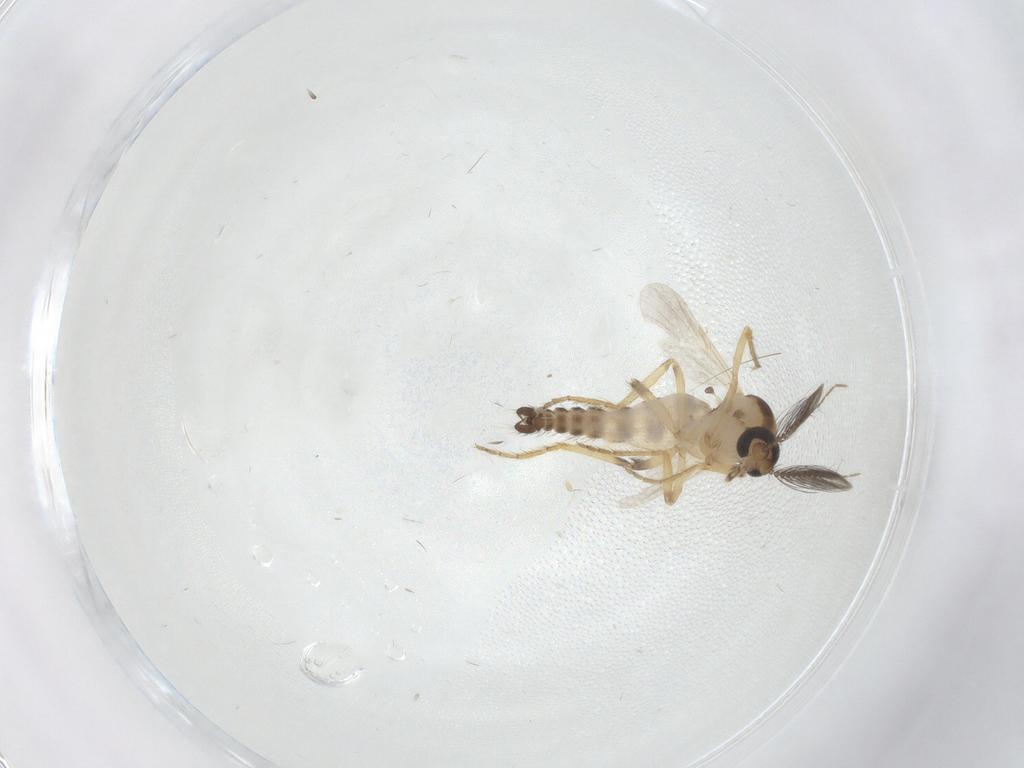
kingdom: Animalia
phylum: Arthropoda
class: Insecta
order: Diptera
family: Ceratopogonidae
